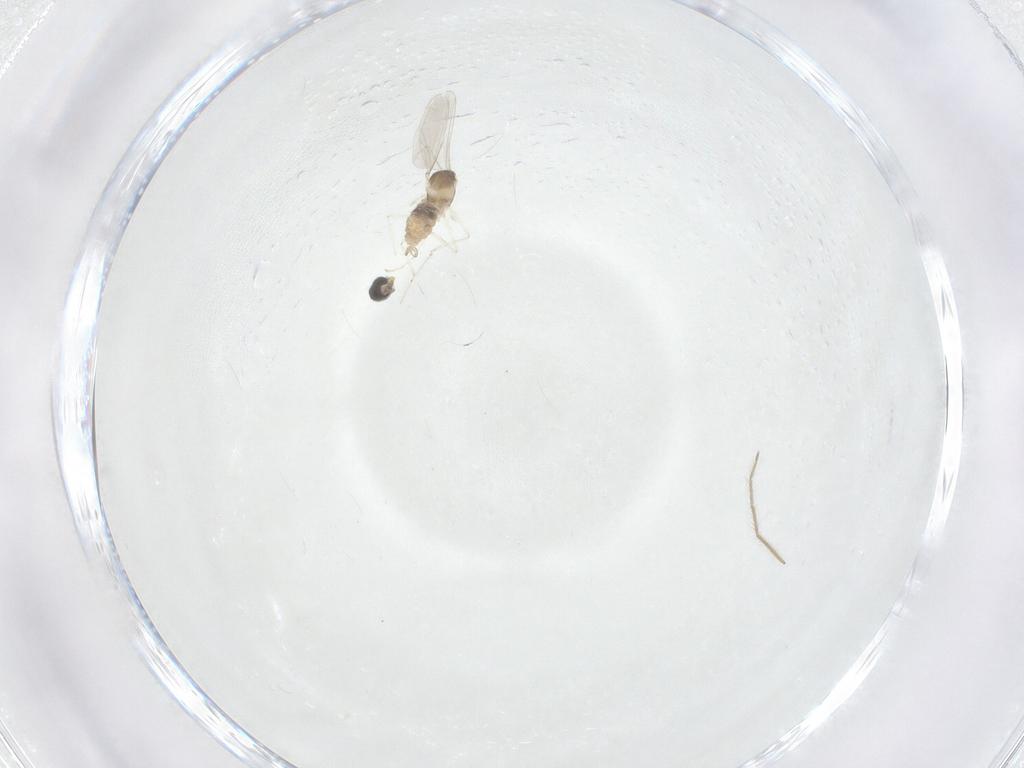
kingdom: Animalia
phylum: Arthropoda
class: Insecta
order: Diptera
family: Chironomidae
